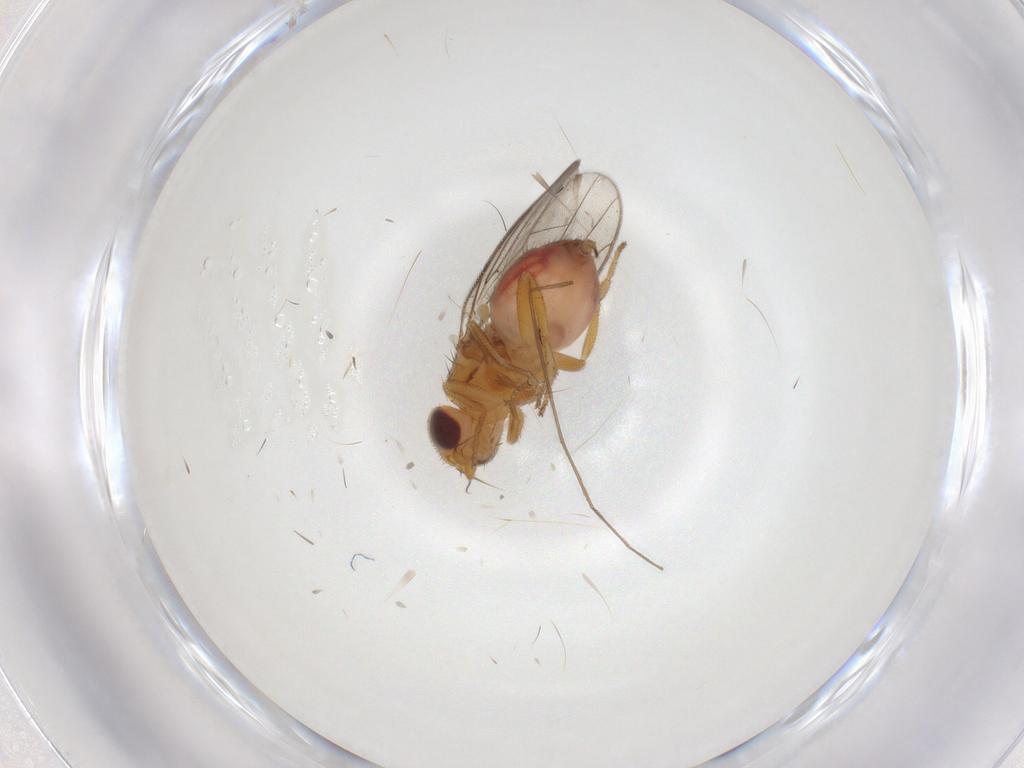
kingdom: Animalia
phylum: Arthropoda
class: Insecta
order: Diptera
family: Chloropidae
